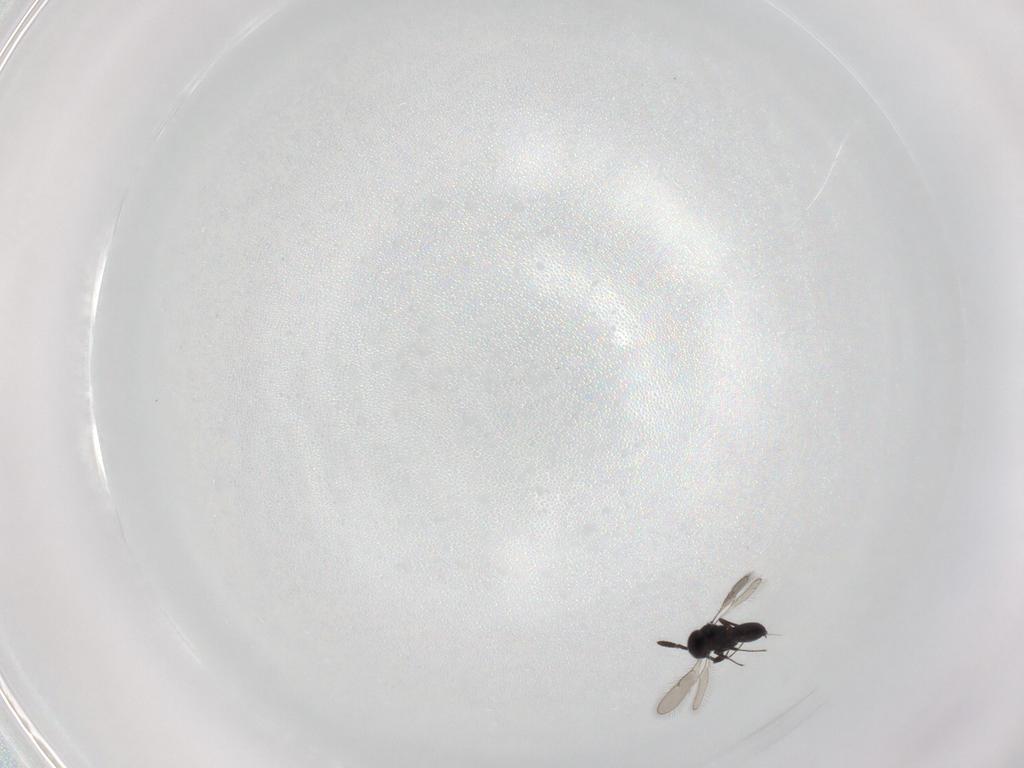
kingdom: Animalia
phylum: Arthropoda
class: Insecta
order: Hymenoptera
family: Scelionidae
